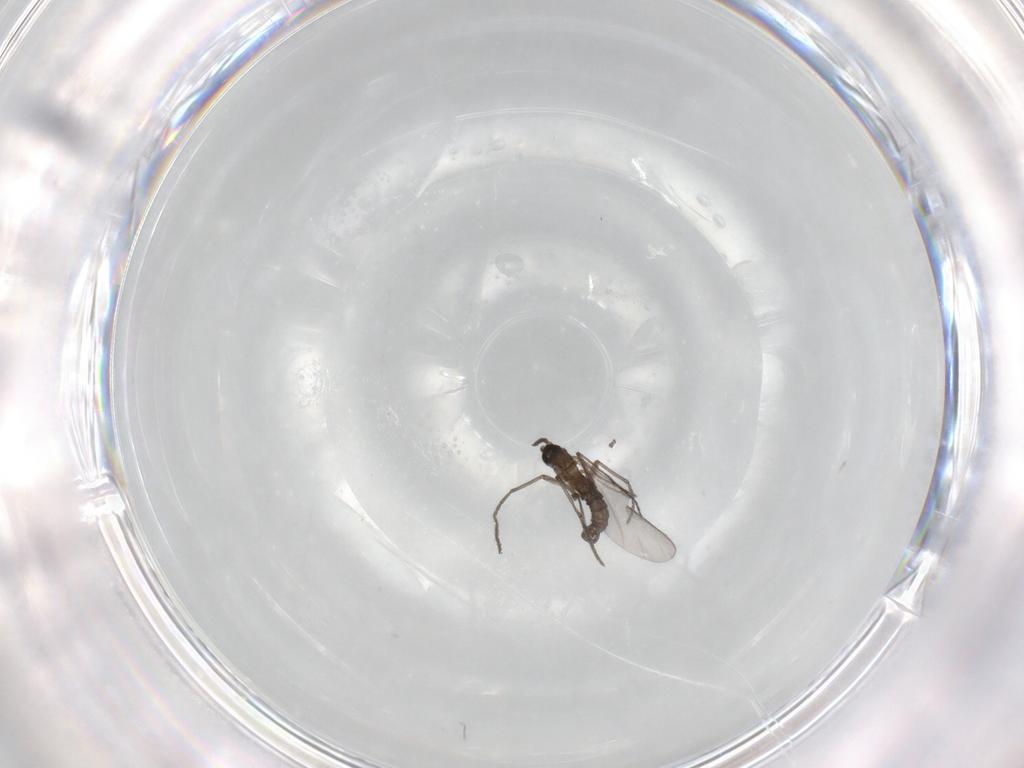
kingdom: Animalia
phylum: Arthropoda
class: Insecta
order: Diptera
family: Sciaridae
